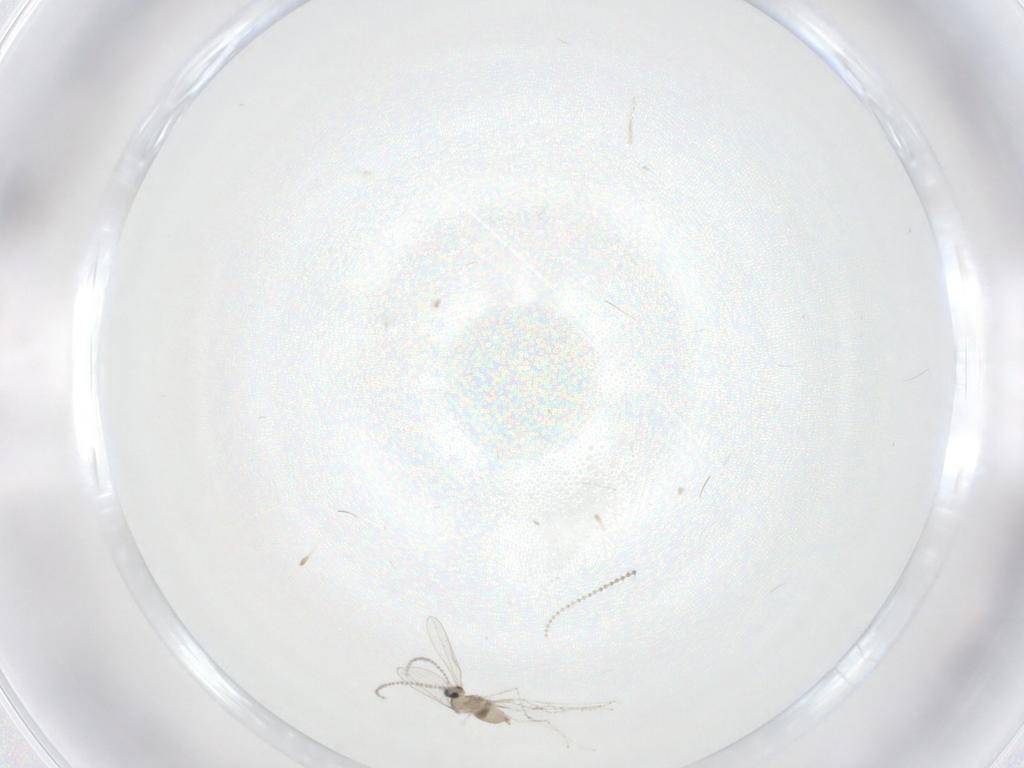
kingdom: Animalia
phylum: Arthropoda
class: Insecta
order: Diptera
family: Cecidomyiidae
